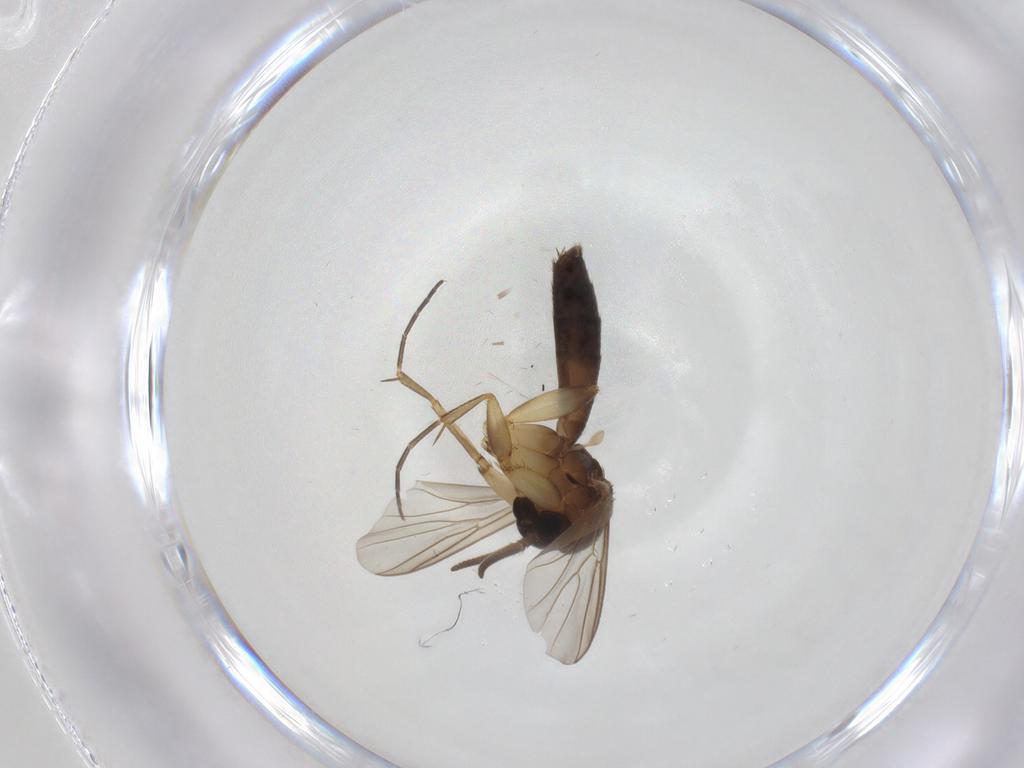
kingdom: Animalia
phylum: Arthropoda
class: Insecta
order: Diptera
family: Mycetophilidae
